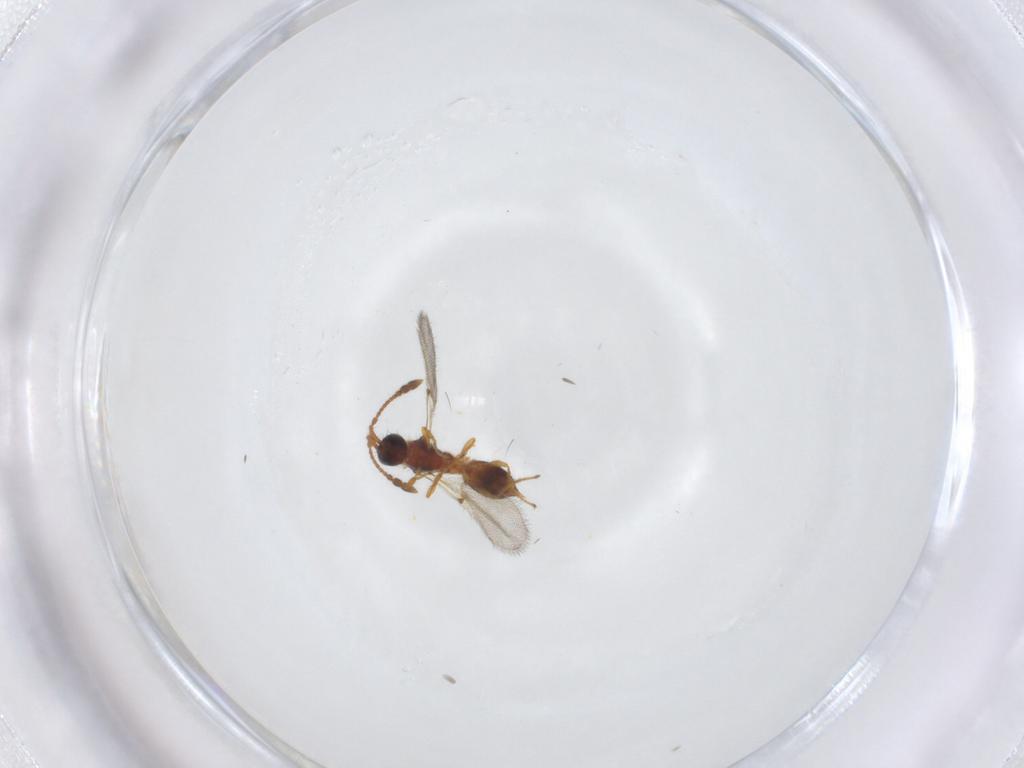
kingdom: Animalia
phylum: Arthropoda
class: Insecta
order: Hymenoptera
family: Diapriidae
